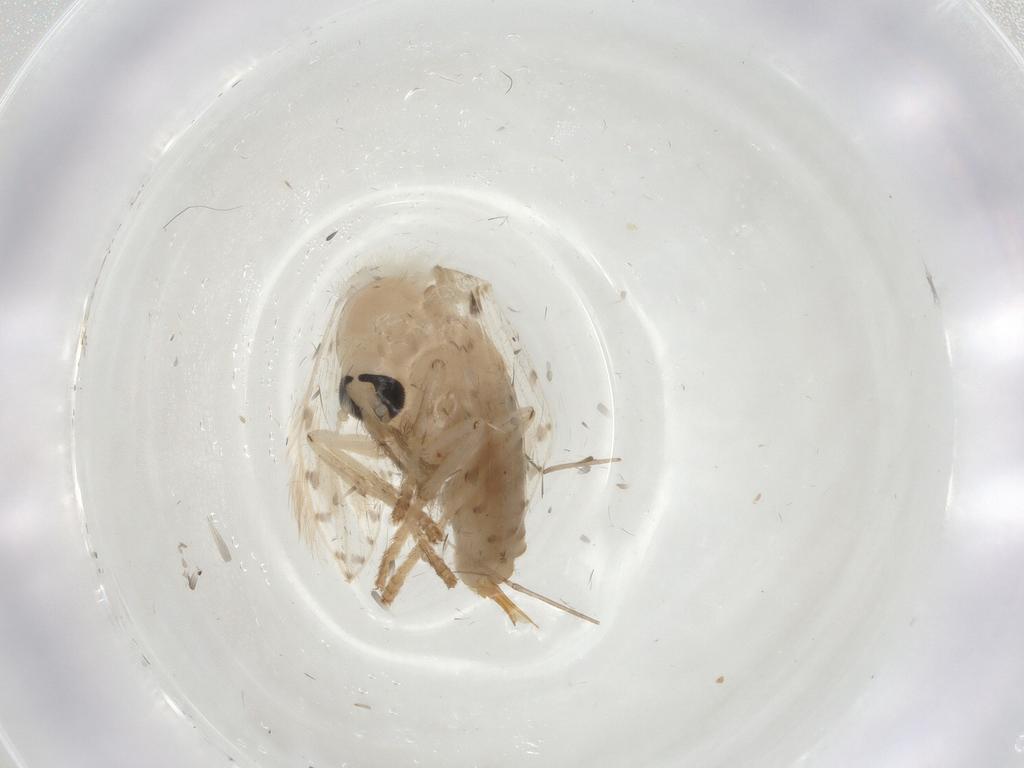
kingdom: Animalia
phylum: Arthropoda
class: Insecta
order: Diptera
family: Psychodidae
